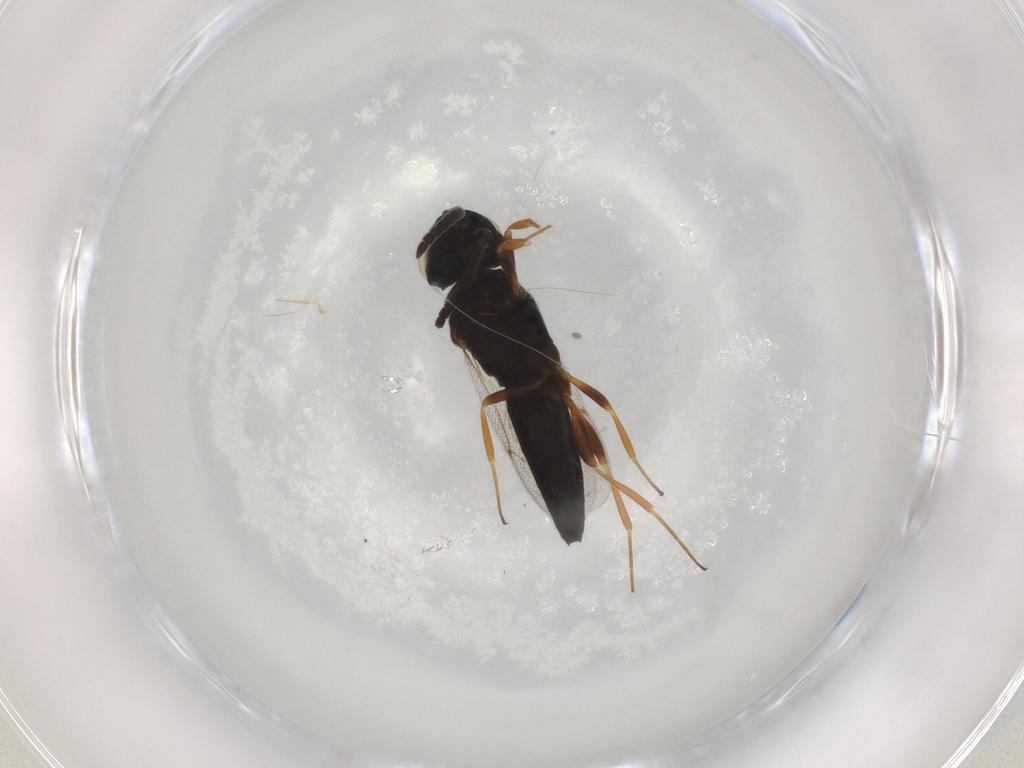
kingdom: Animalia
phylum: Arthropoda
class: Insecta
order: Hymenoptera
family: Scelionidae
